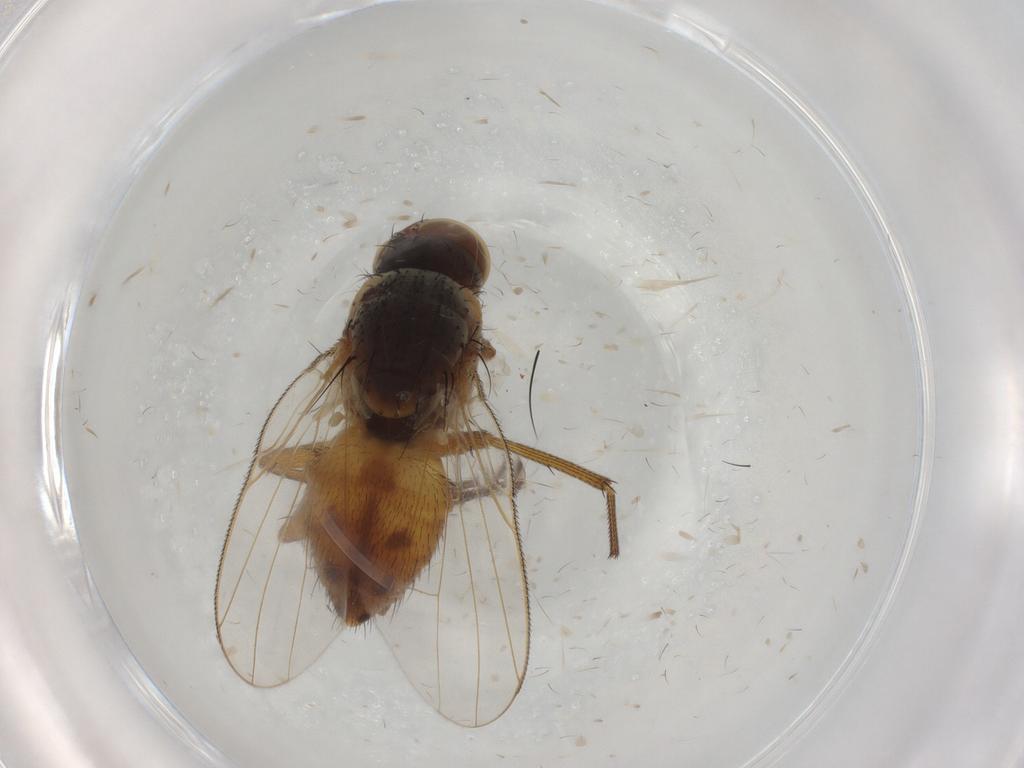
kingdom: Animalia
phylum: Arthropoda
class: Insecta
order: Diptera
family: Muscidae
